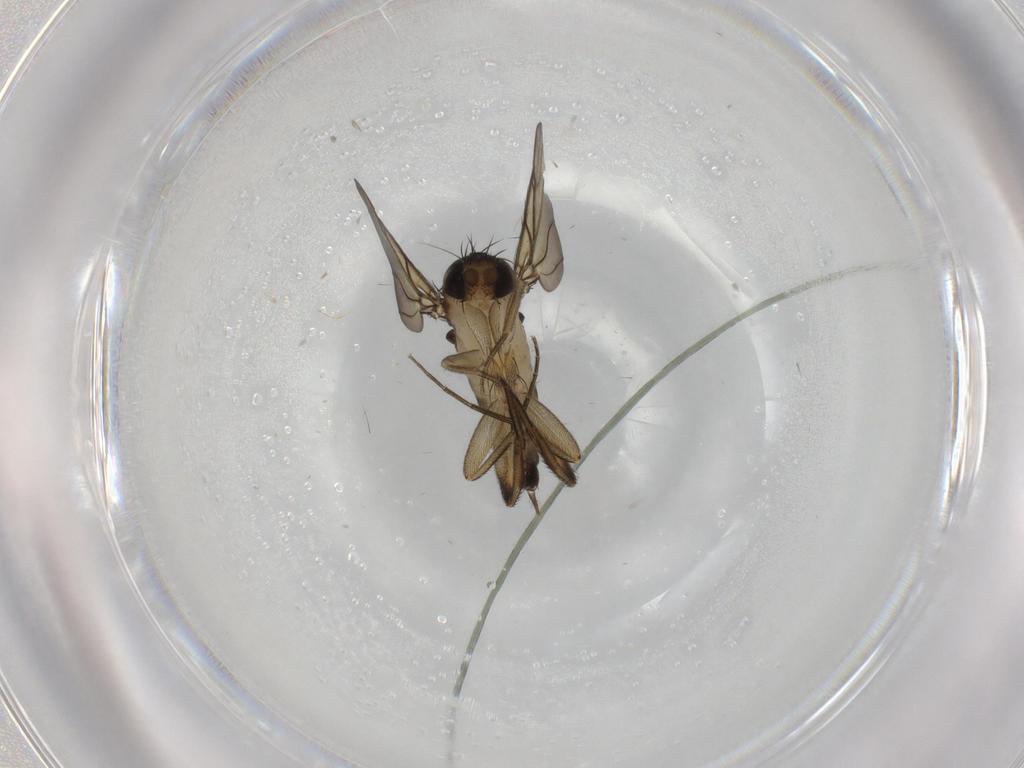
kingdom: Animalia
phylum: Arthropoda
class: Insecta
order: Diptera
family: Phoridae
